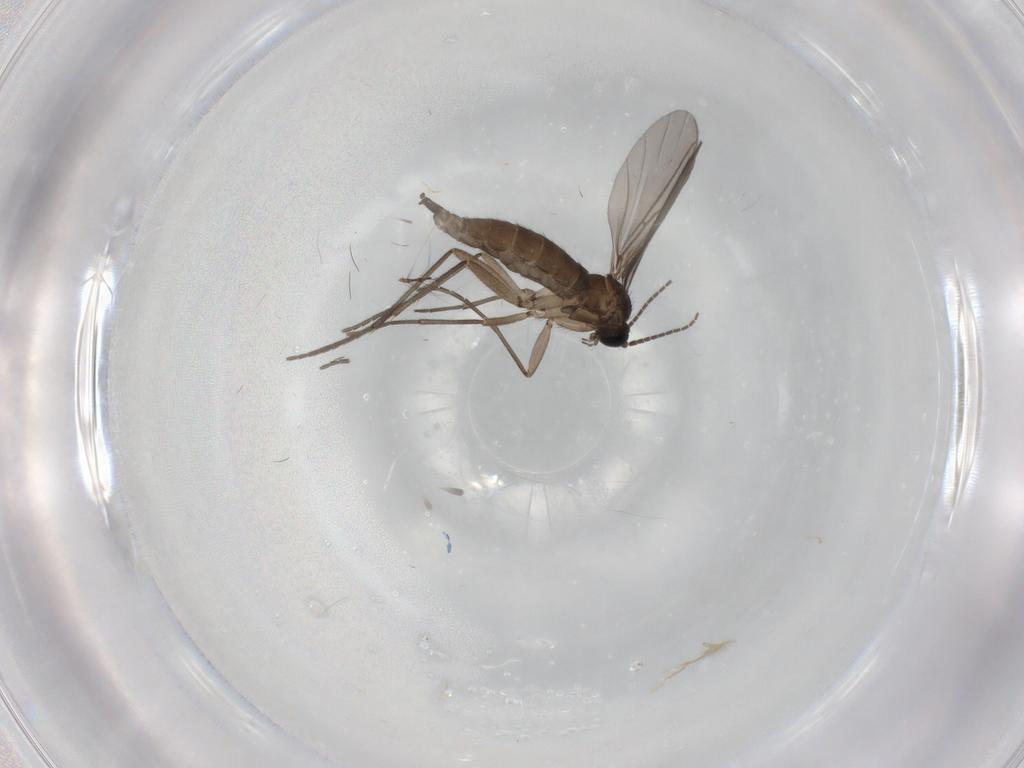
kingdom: Animalia
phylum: Arthropoda
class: Insecta
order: Diptera
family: Sciaridae
